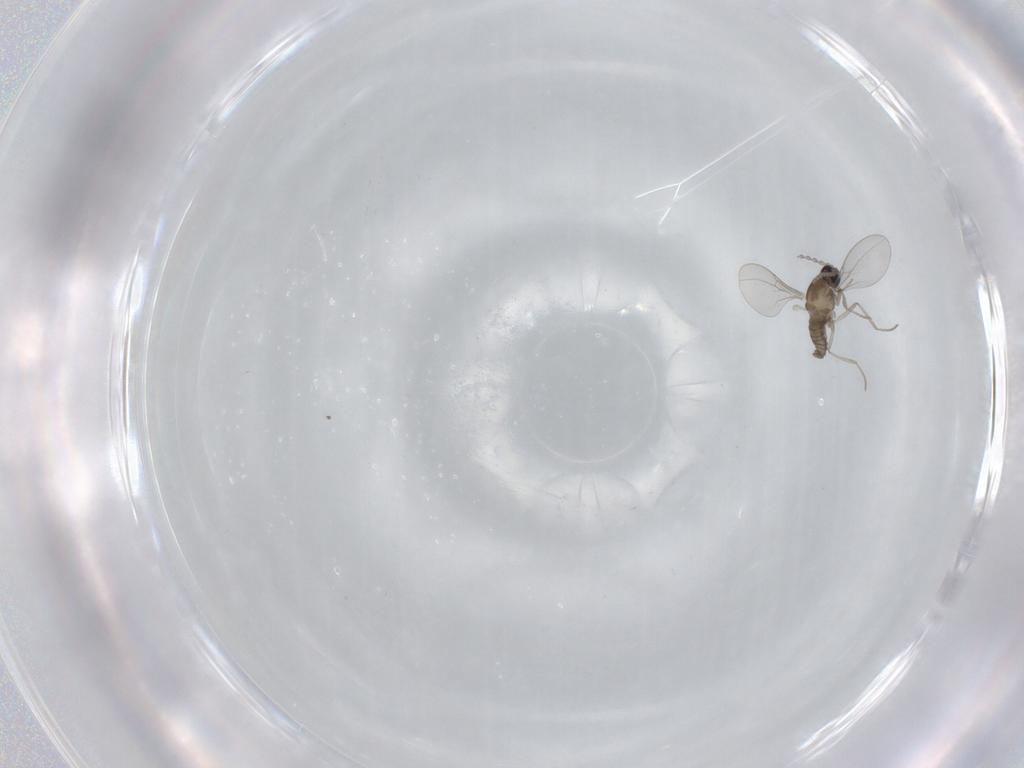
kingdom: Animalia
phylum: Arthropoda
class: Insecta
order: Diptera
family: Cecidomyiidae
